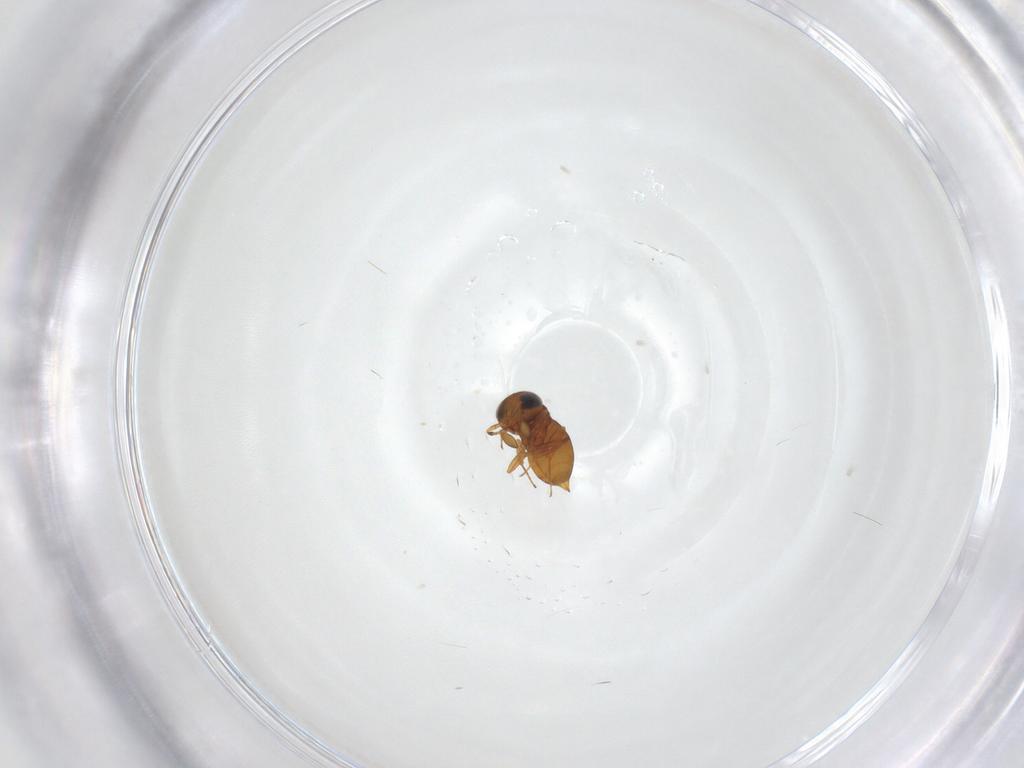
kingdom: Animalia
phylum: Arthropoda
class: Insecta
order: Hymenoptera
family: Scelionidae
